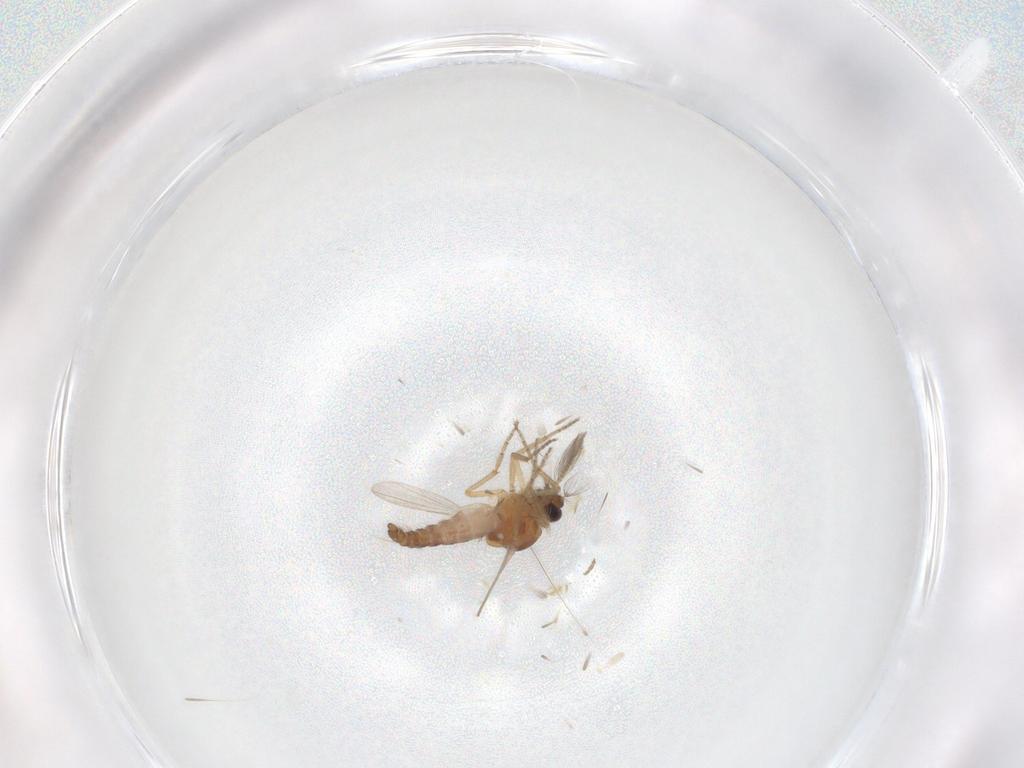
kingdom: Animalia
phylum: Arthropoda
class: Insecta
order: Diptera
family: Ceratopogonidae
